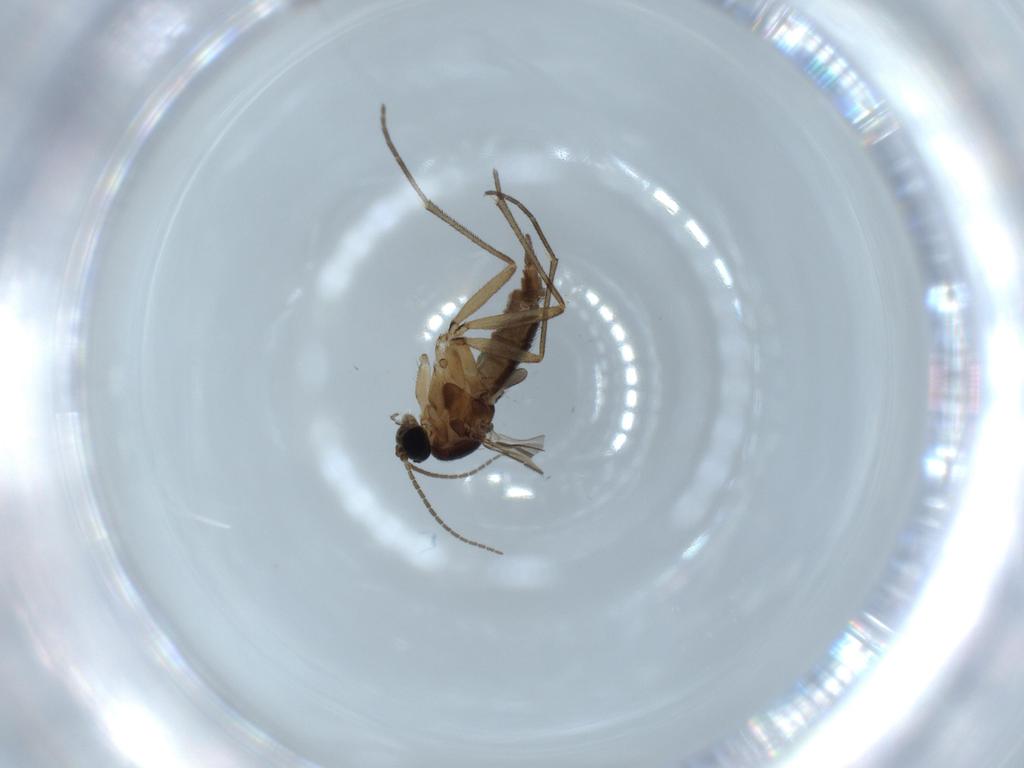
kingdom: Animalia
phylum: Arthropoda
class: Insecta
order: Diptera
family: Sciaridae
